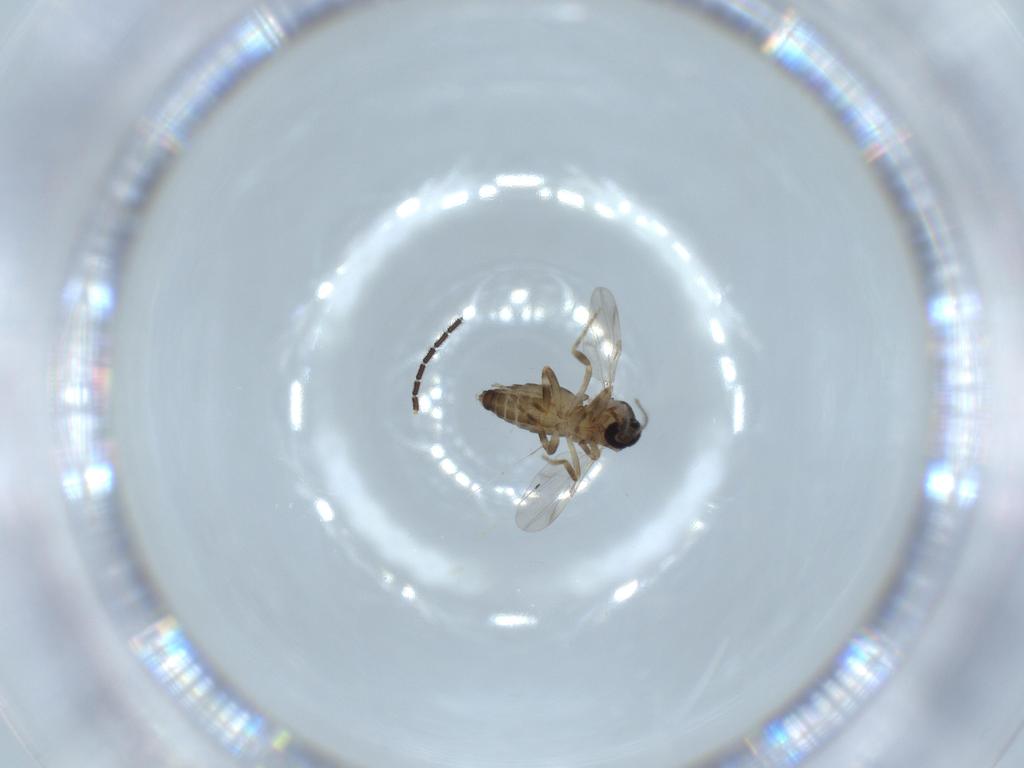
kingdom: Animalia
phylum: Arthropoda
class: Insecta
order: Diptera
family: Ceratopogonidae
